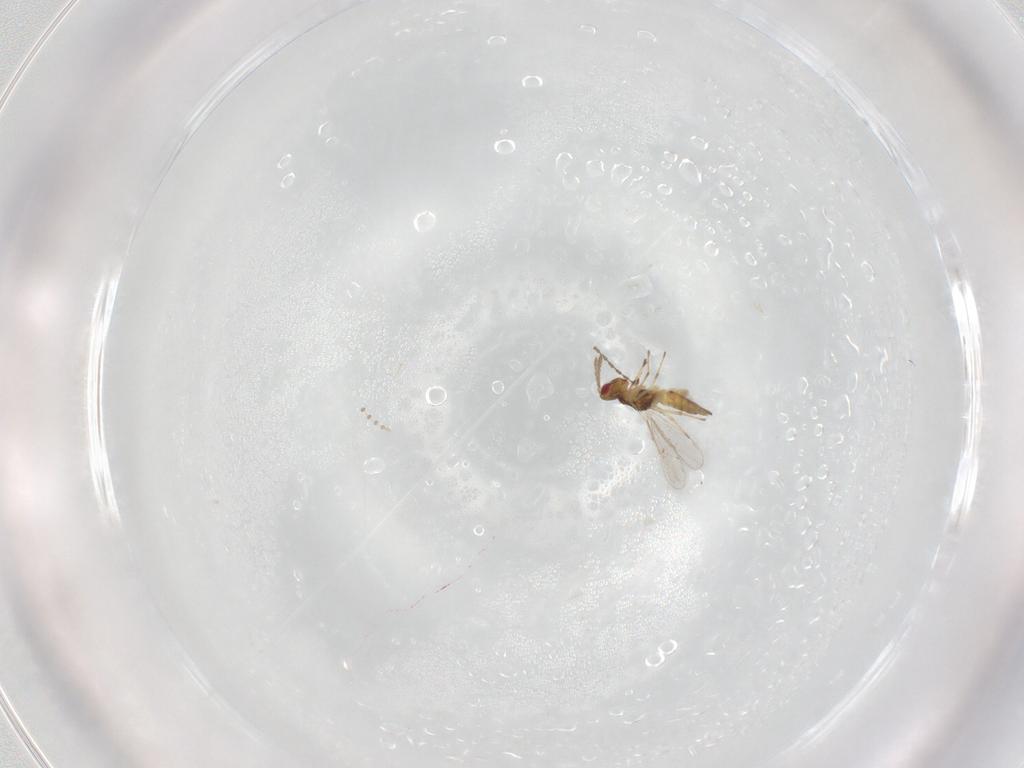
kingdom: Animalia
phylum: Arthropoda
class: Insecta
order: Hymenoptera
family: Eulophidae
